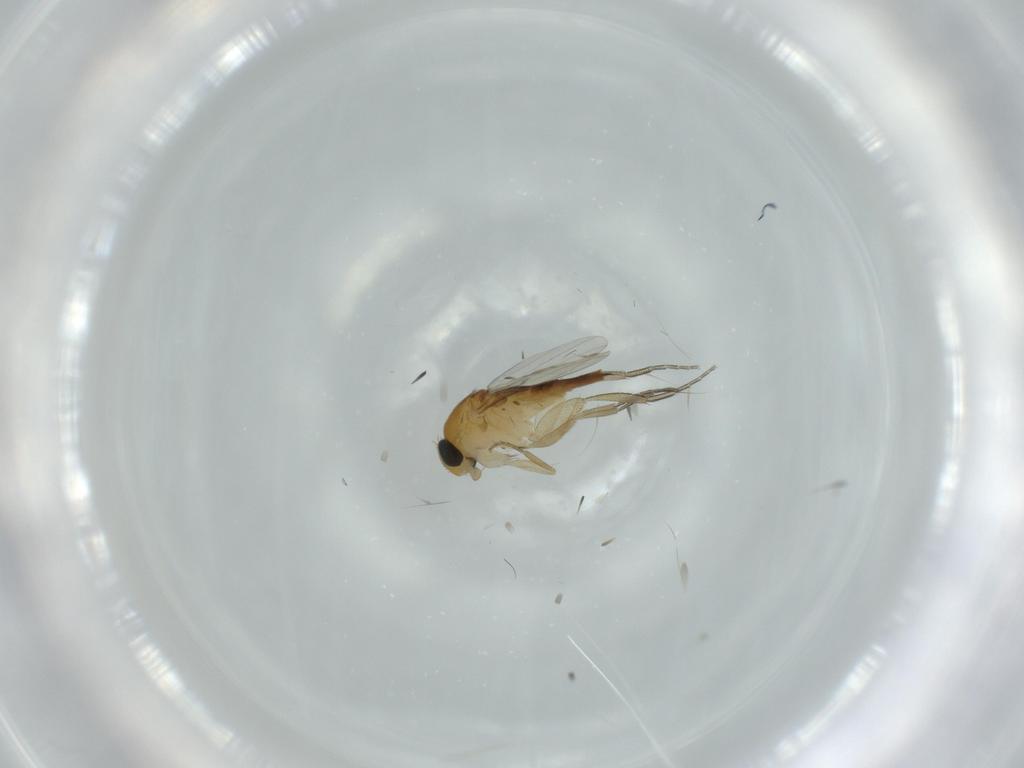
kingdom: Animalia
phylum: Arthropoda
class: Insecta
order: Diptera
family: Phoridae
